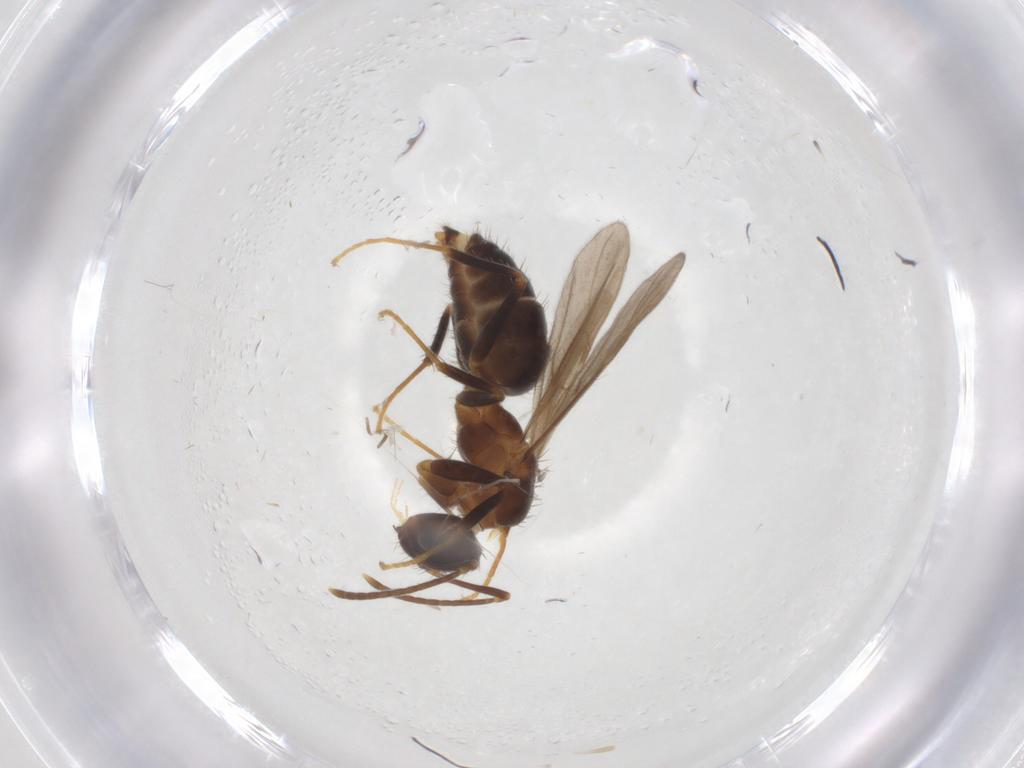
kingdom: Animalia
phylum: Arthropoda
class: Insecta
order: Hymenoptera
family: Formicidae
